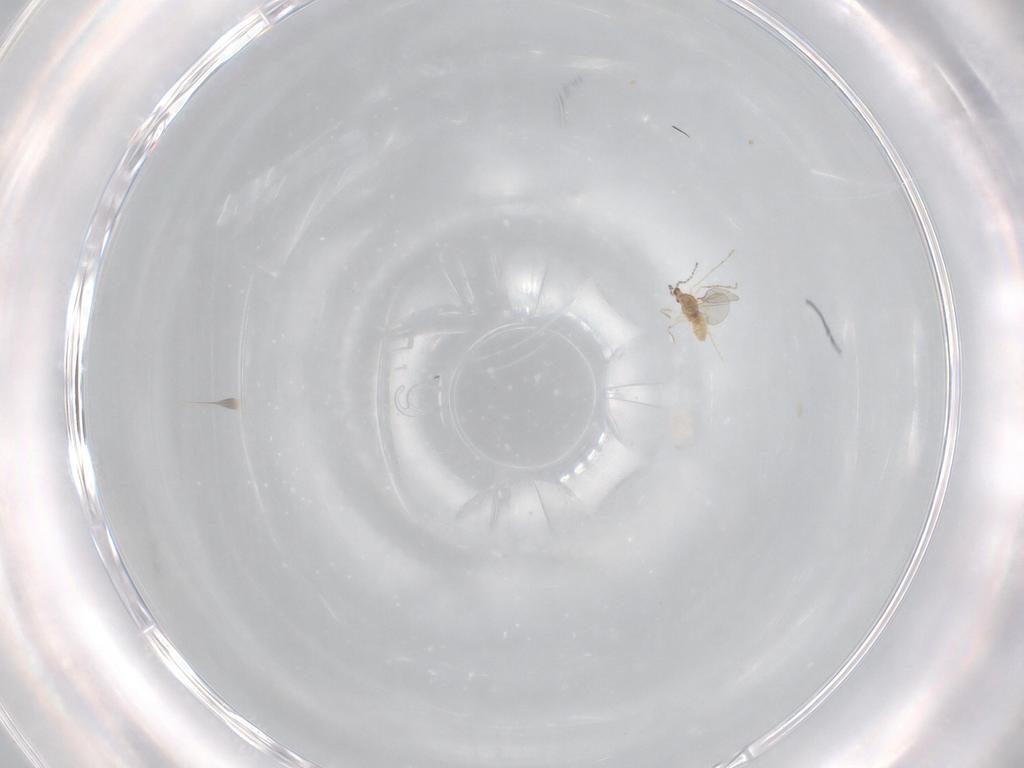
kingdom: Animalia
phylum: Arthropoda
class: Insecta
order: Diptera
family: Cecidomyiidae
